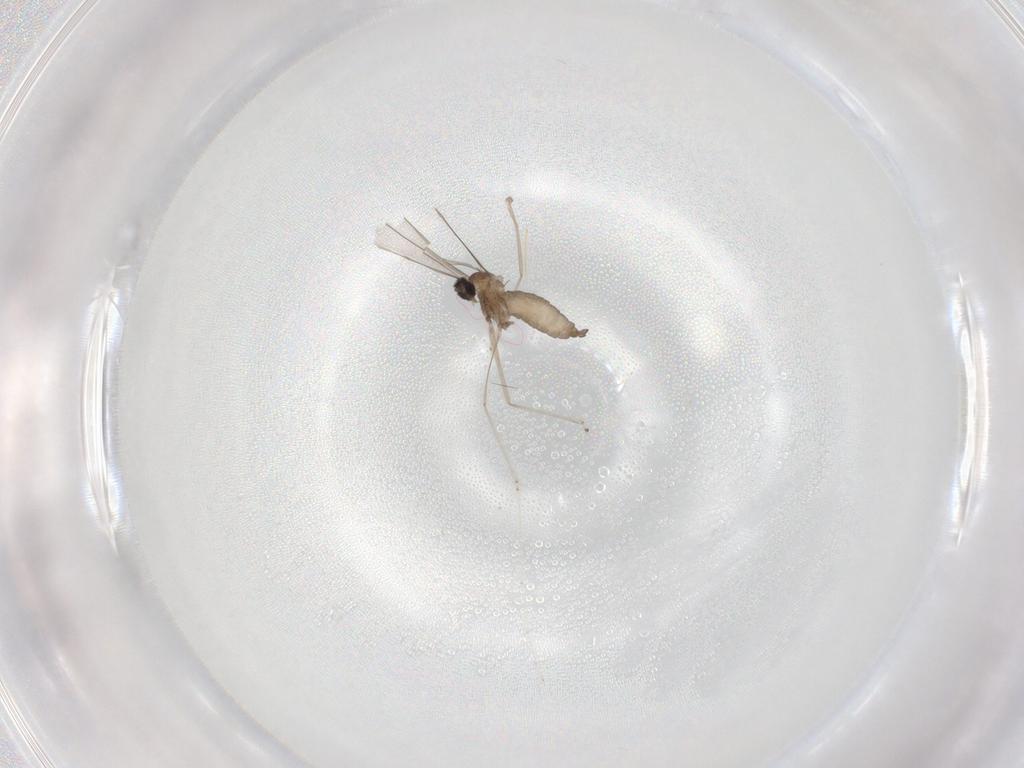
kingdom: Animalia
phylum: Arthropoda
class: Insecta
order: Diptera
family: Cecidomyiidae
